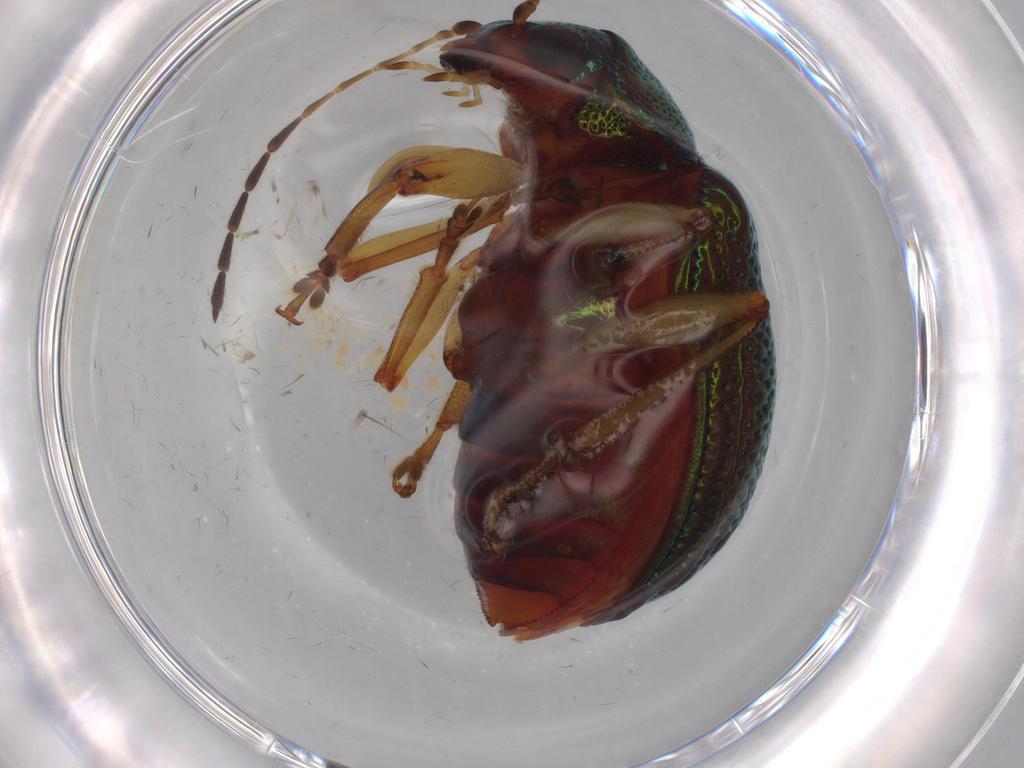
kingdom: Animalia
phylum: Arthropoda
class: Insecta
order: Coleoptera
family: Chrysomelidae
